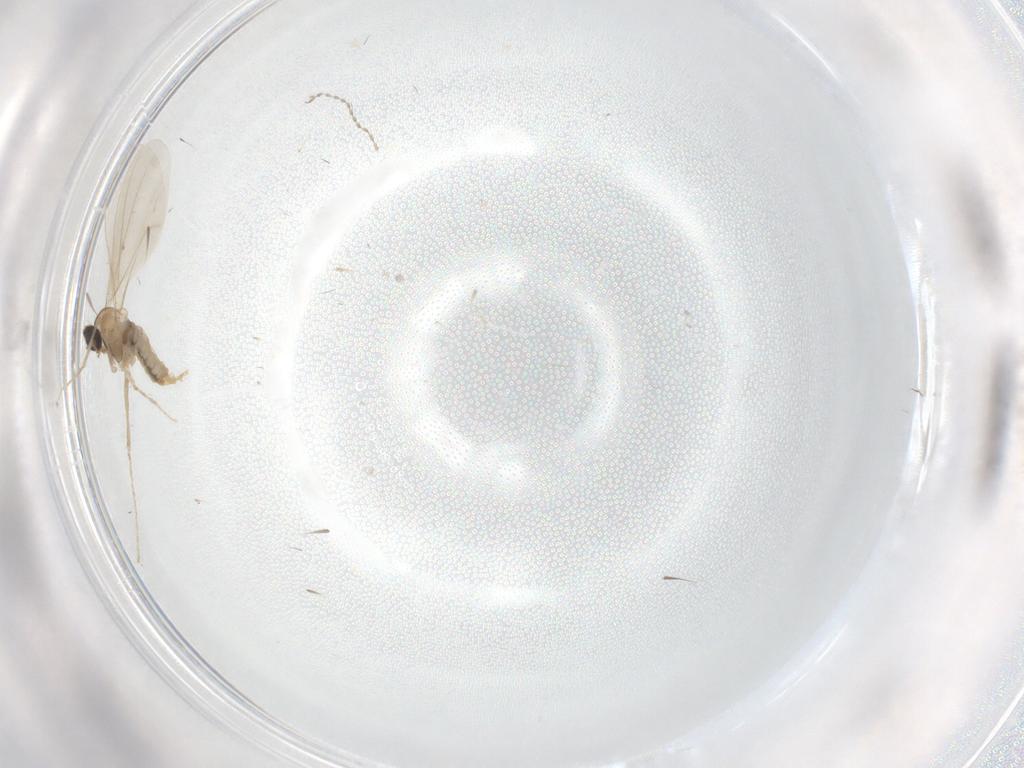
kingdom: Animalia
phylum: Arthropoda
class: Insecta
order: Diptera
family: Cecidomyiidae
